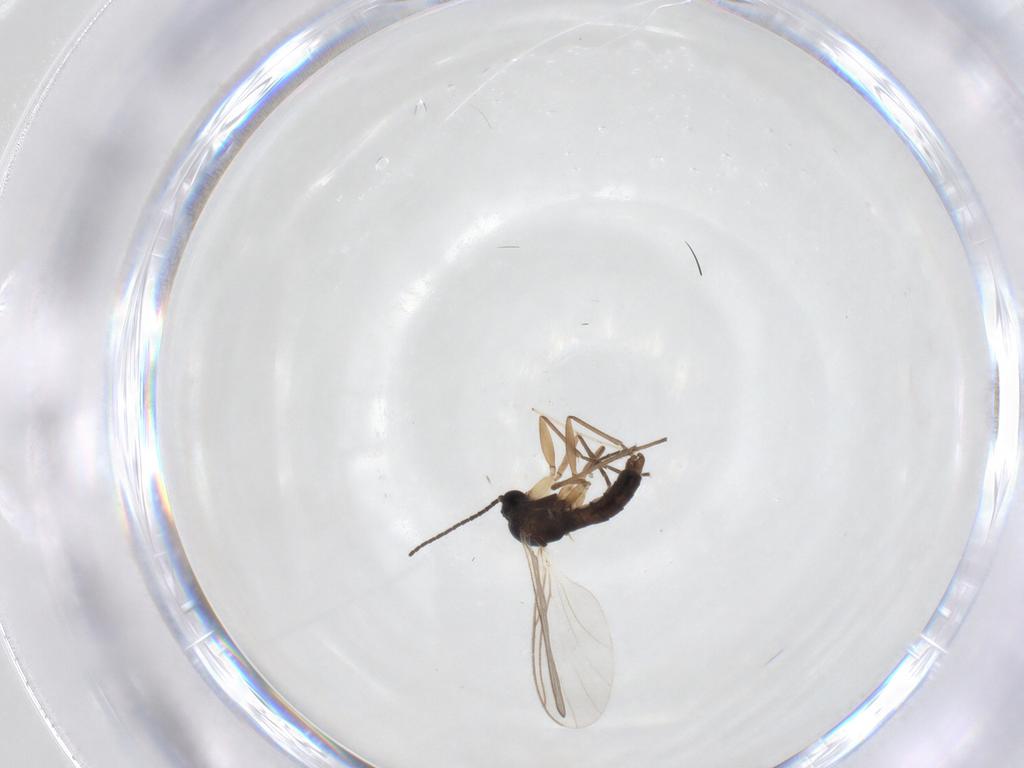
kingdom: Animalia
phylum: Arthropoda
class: Insecta
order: Diptera
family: Sciaridae
